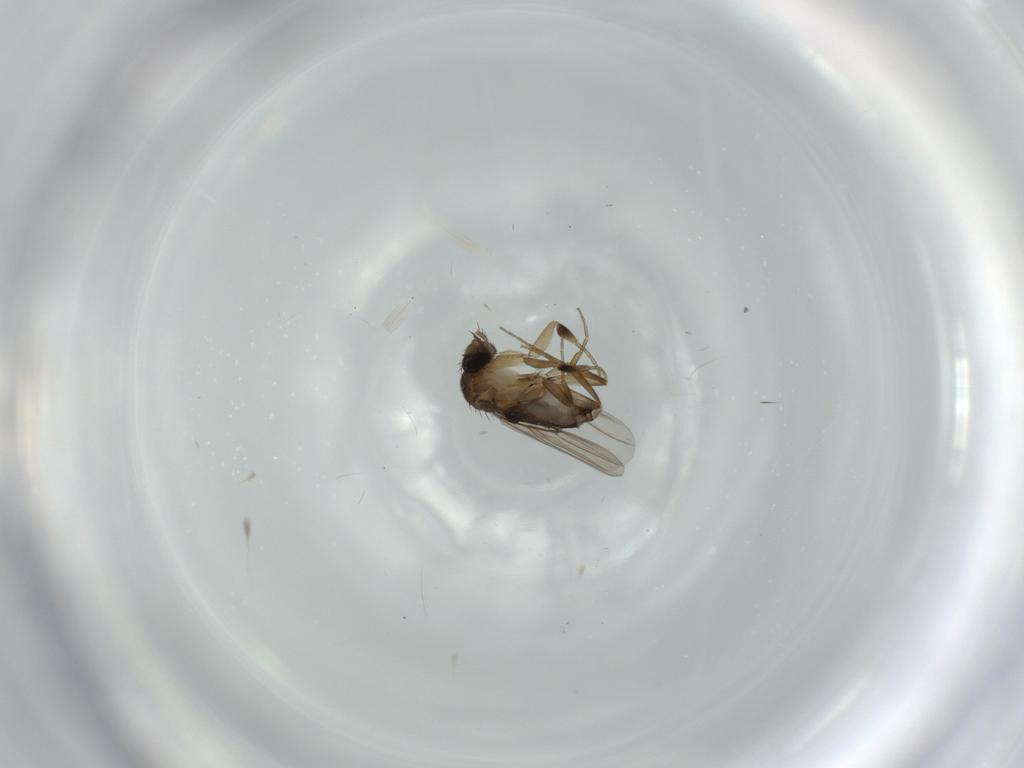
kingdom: Animalia
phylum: Arthropoda
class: Insecta
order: Diptera
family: Phoridae
